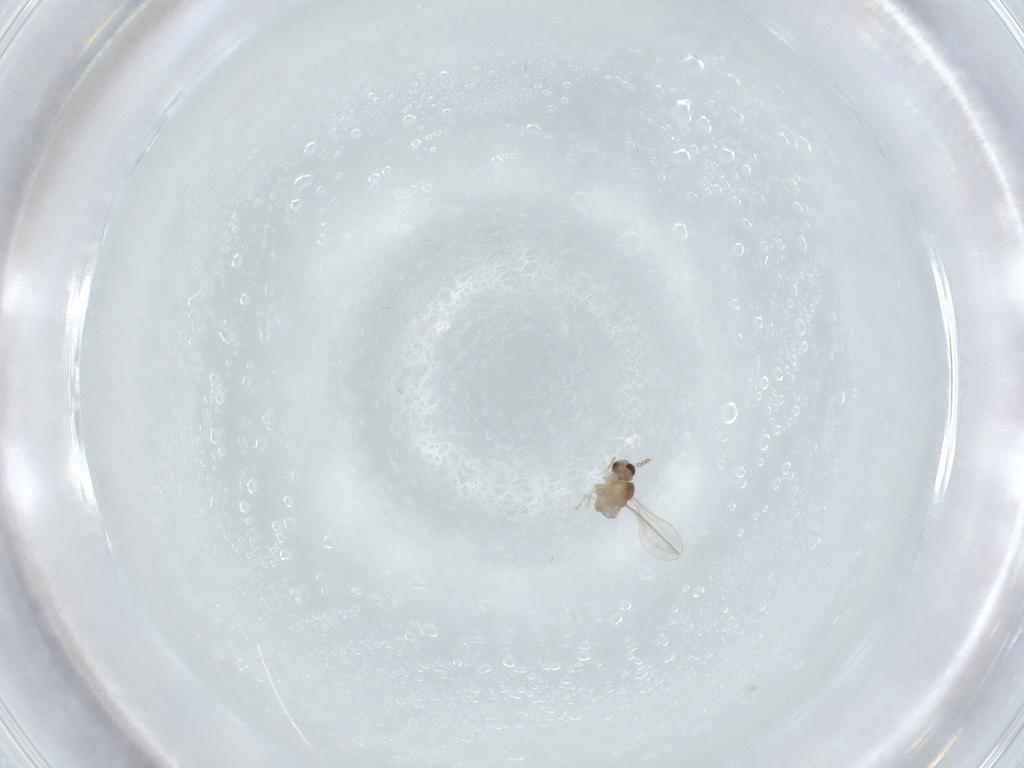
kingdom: Animalia
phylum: Arthropoda
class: Insecta
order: Diptera
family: Cecidomyiidae
